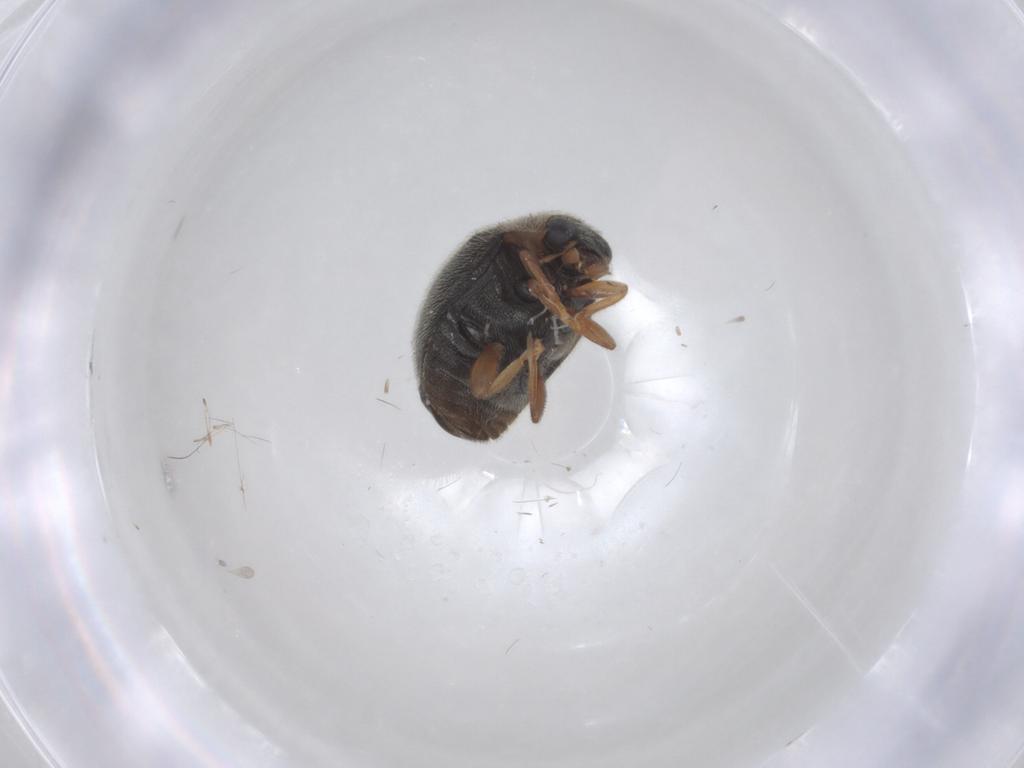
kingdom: Animalia
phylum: Arthropoda
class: Insecta
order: Coleoptera
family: Coccinellidae
